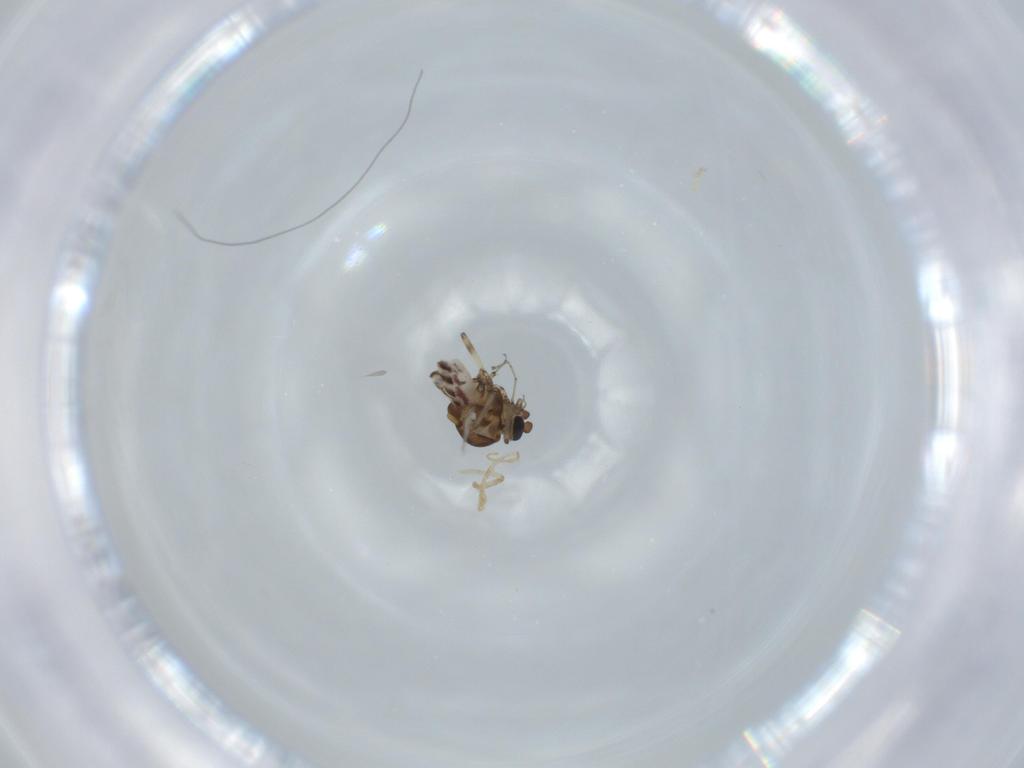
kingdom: Animalia
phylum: Arthropoda
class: Insecta
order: Diptera
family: Ceratopogonidae
